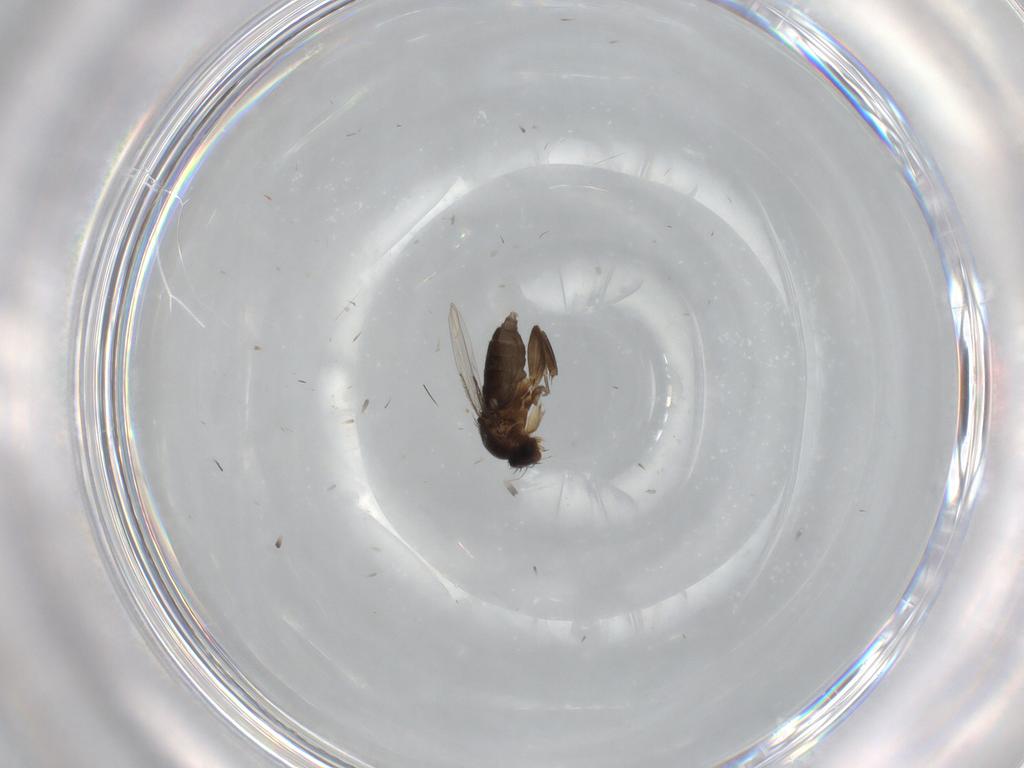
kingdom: Animalia
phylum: Arthropoda
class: Insecta
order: Diptera
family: Phoridae
